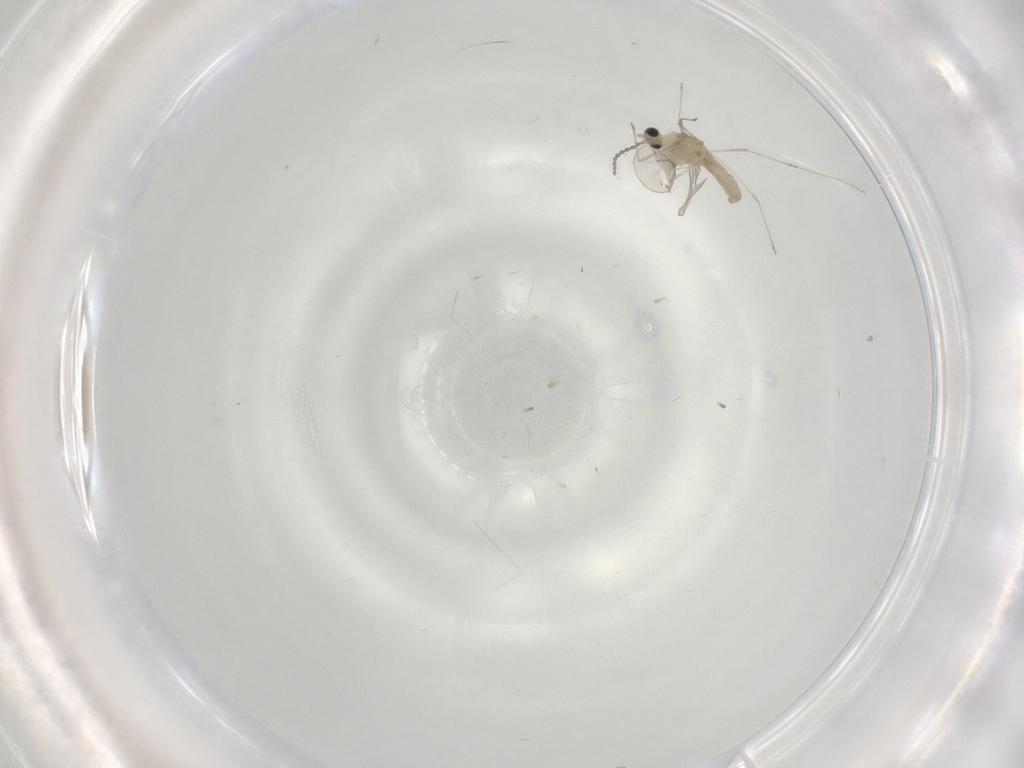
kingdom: Animalia
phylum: Arthropoda
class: Insecta
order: Diptera
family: Cecidomyiidae
